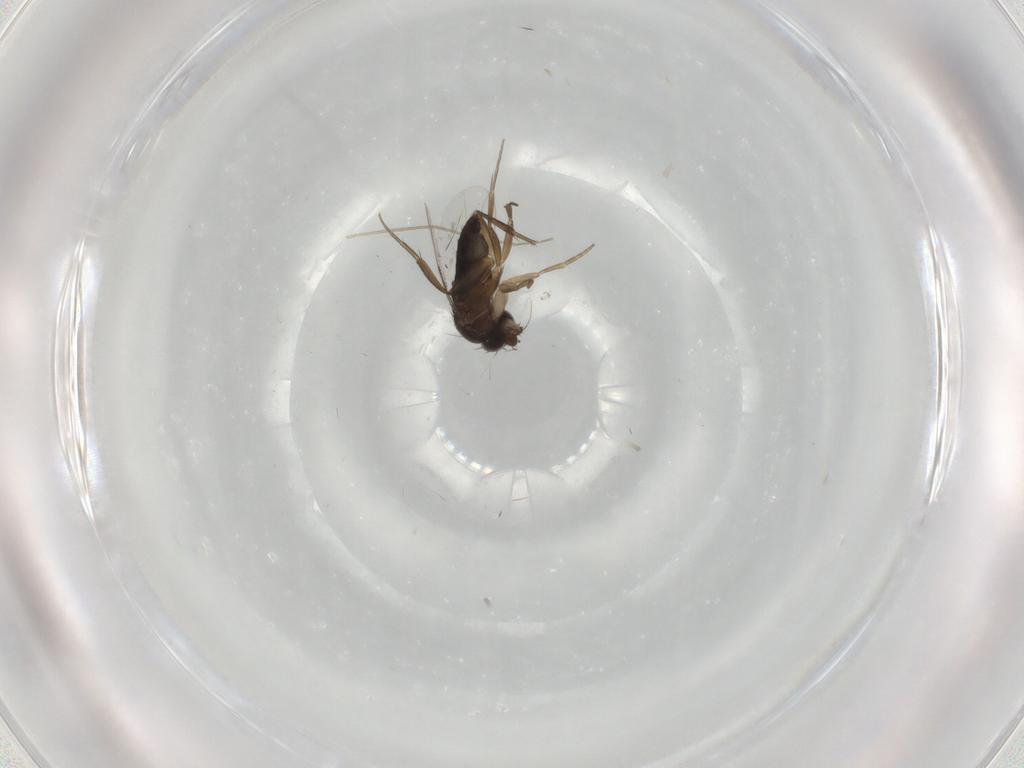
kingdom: Animalia
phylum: Arthropoda
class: Insecta
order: Diptera
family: Phoridae
